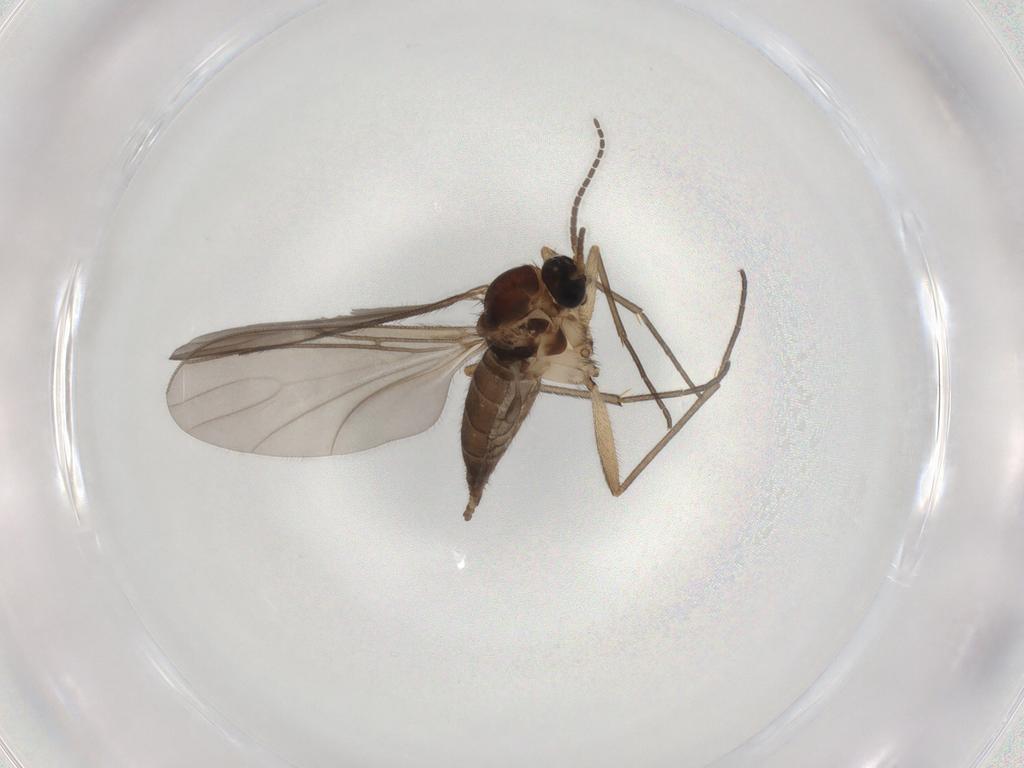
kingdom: Animalia
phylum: Arthropoda
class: Insecta
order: Diptera
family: Sciaridae
